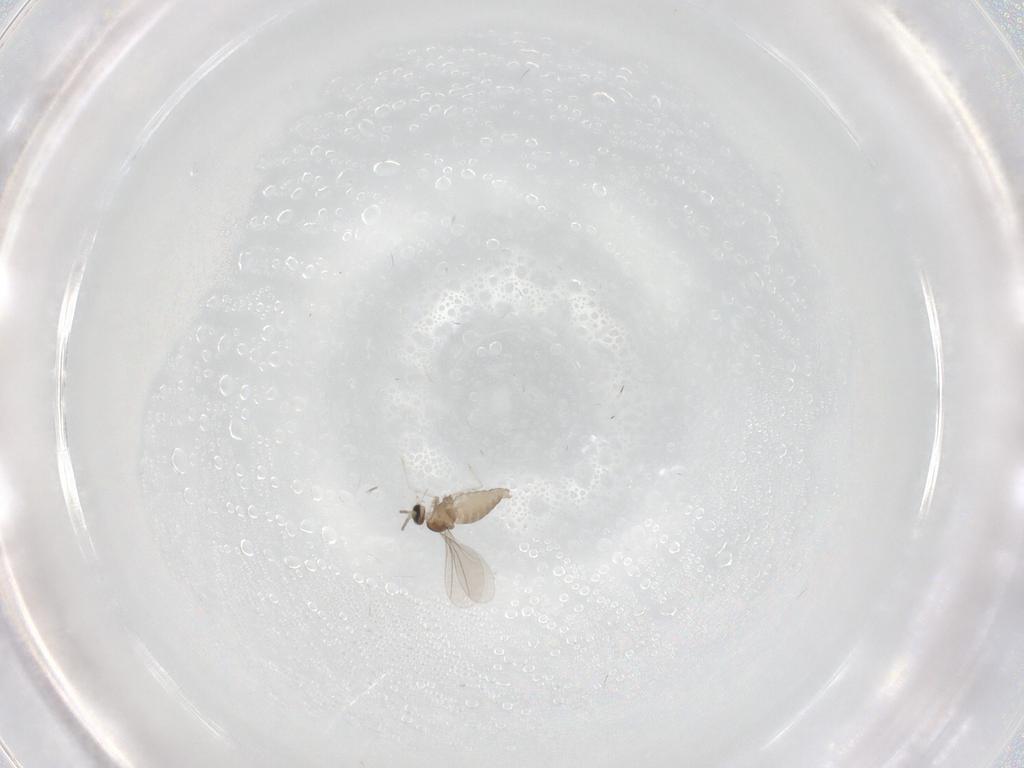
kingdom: Animalia
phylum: Arthropoda
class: Insecta
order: Diptera
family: Cecidomyiidae
